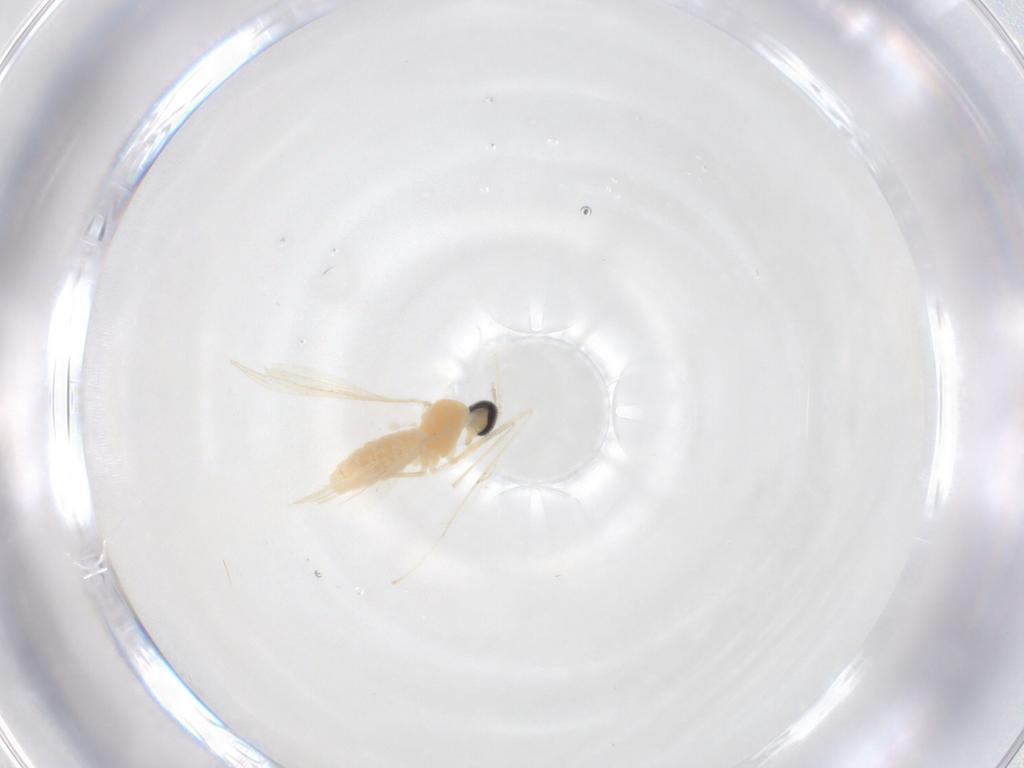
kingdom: Animalia
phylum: Arthropoda
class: Insecta
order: Diptera
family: Cecidomyiidae
